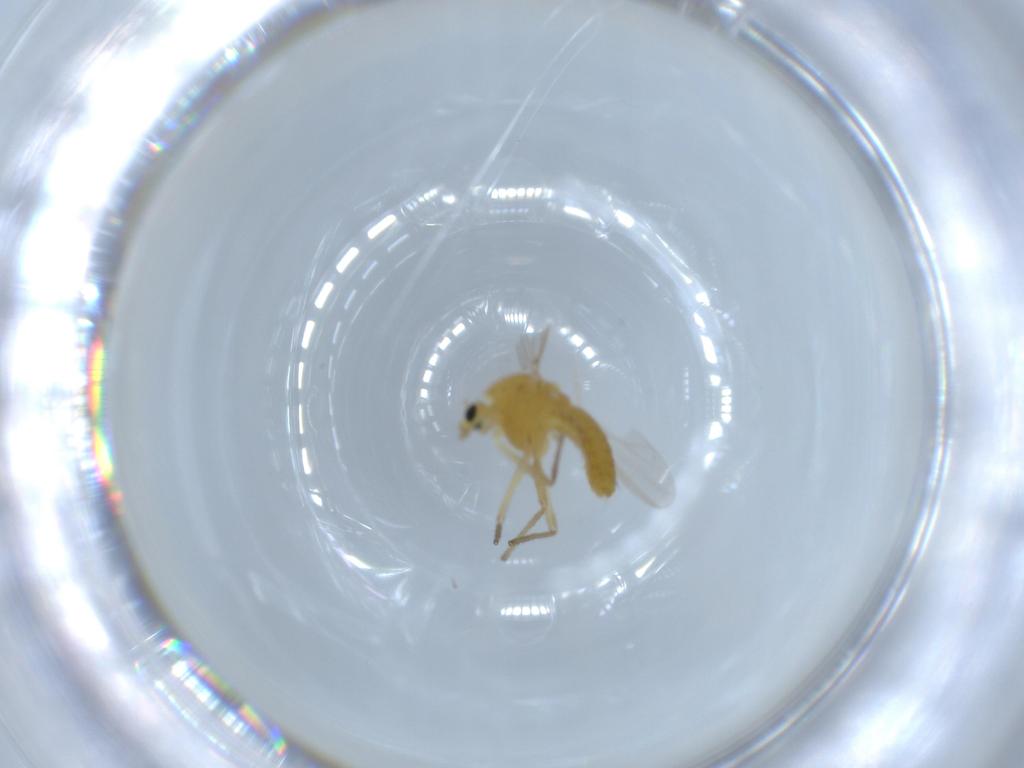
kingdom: Animalia
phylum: Arthropoda
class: Insecta
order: Diptera
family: Chironomidae
